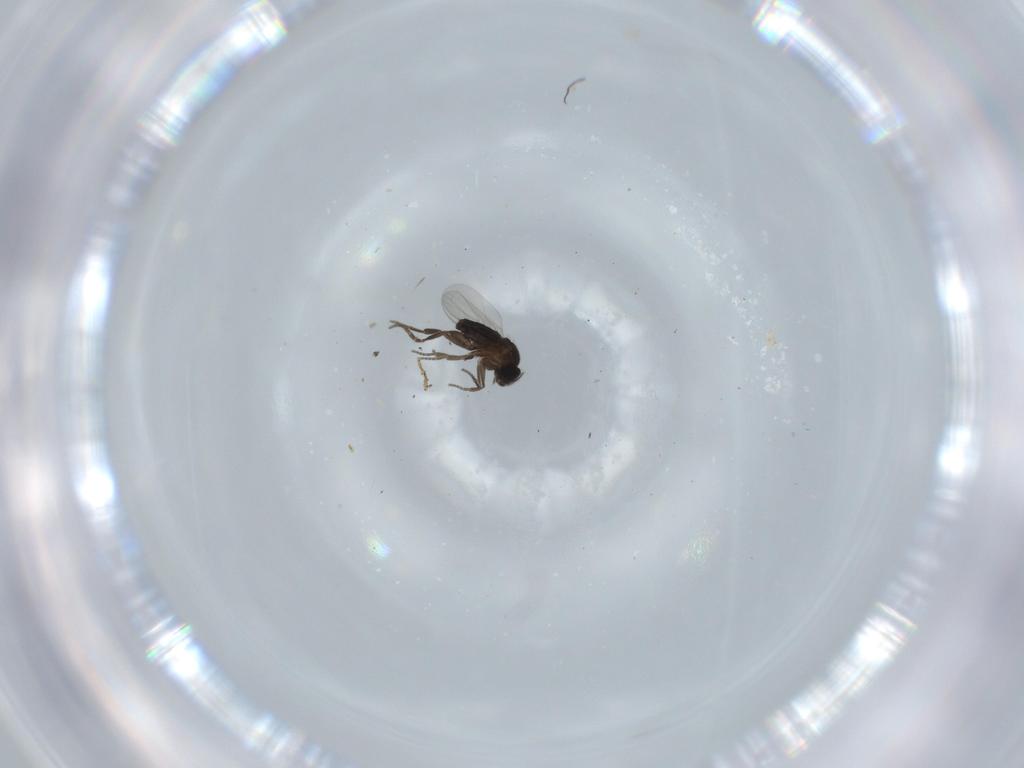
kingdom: Animalia
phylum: Arthropoda
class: Insecta
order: Diptera
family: Phoridae
